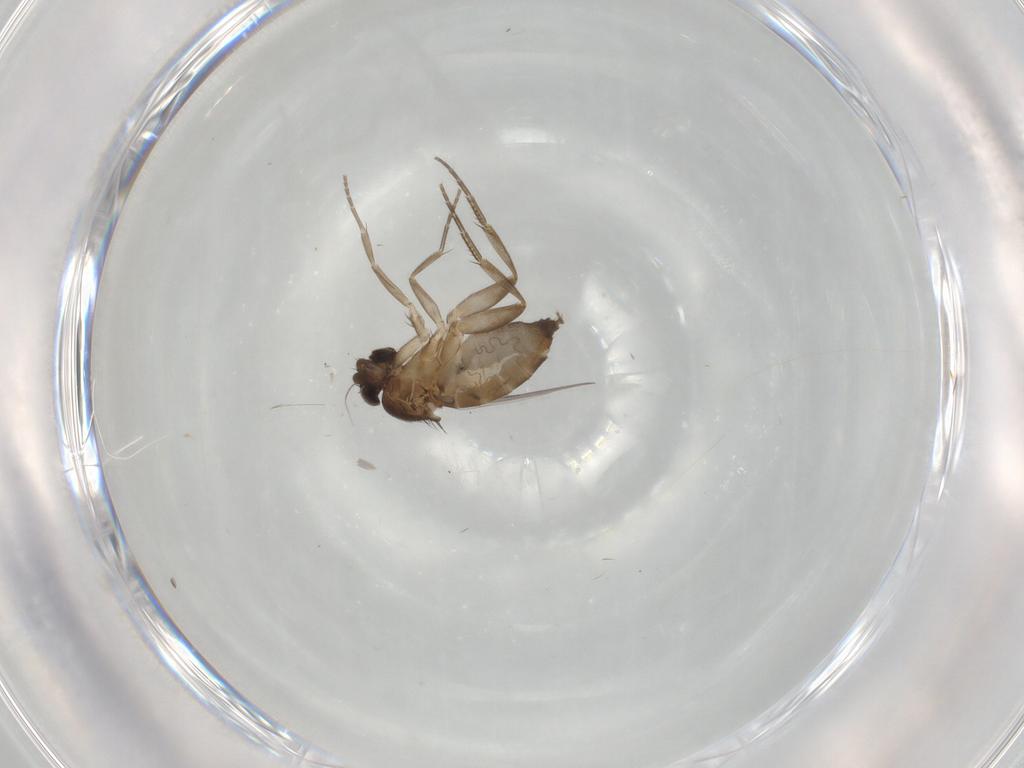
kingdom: Animalia
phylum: Arthropoda
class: Insecta
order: Diptera
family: Phoridae
